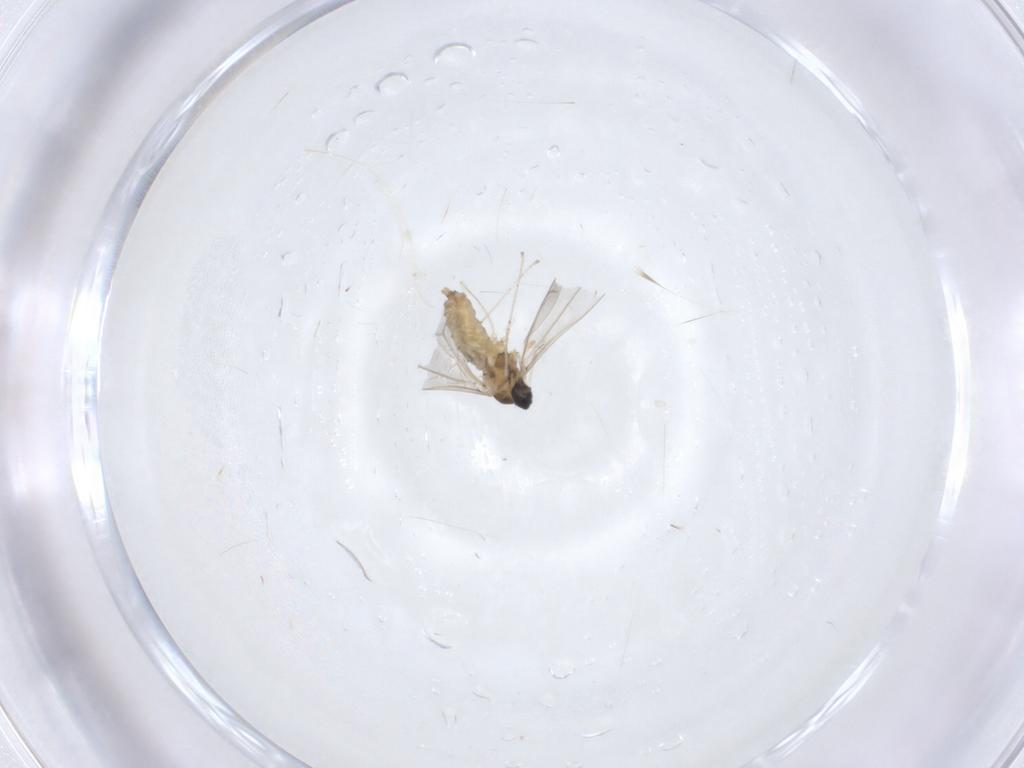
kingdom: Animalia
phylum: Arthropoda
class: Insecta
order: Diptera
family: Cecidomyiidae
